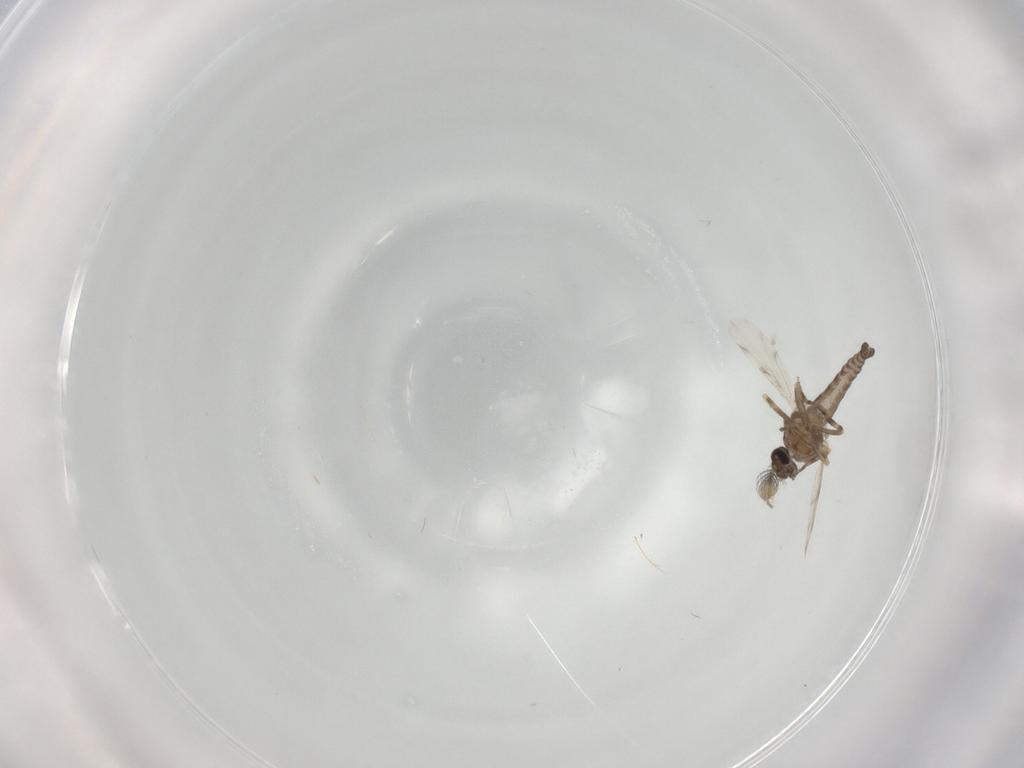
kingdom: Animalia
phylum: Arthropoda
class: Insecta
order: Diptera
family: Ceratopogonidae
